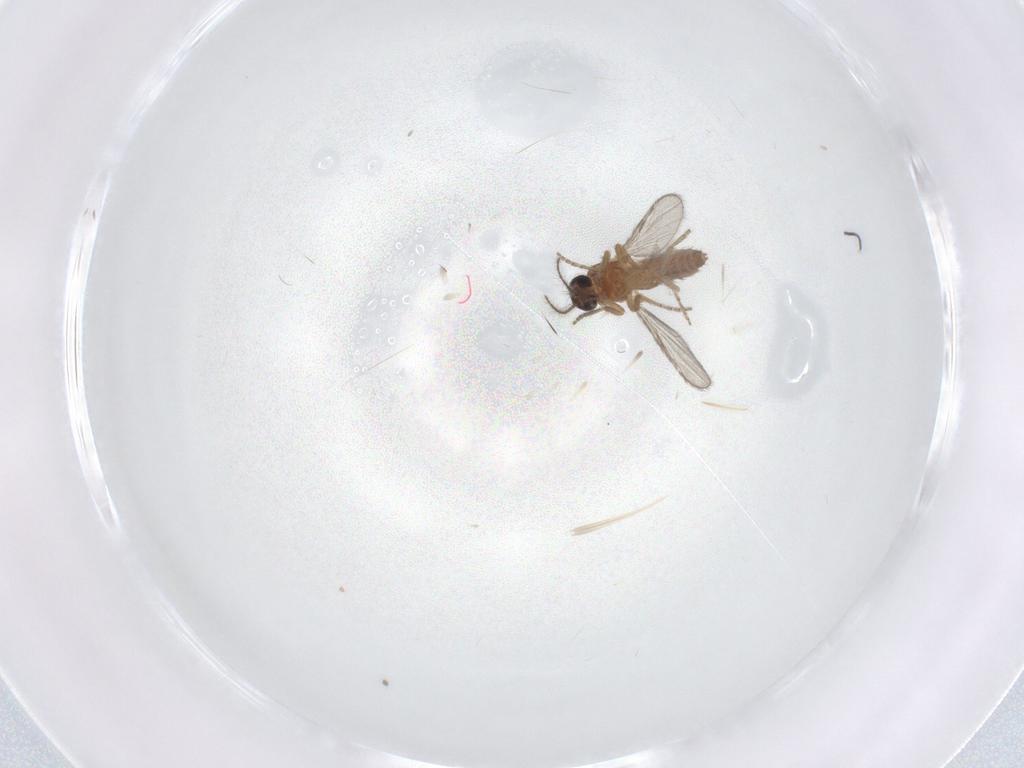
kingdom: Animalia
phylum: Arthropoda
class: Insecta
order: Diptera
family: Ceratopogonidae
